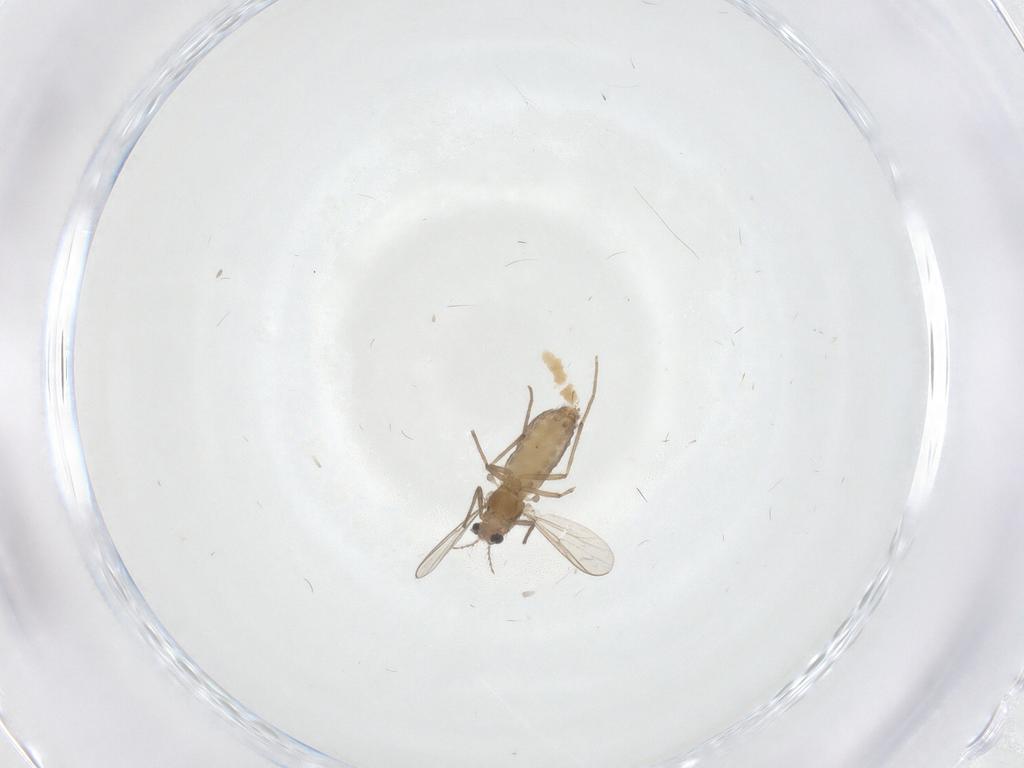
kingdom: Animalia
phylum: Arthropoda
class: Insecta
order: Diptera
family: Chironomidae
